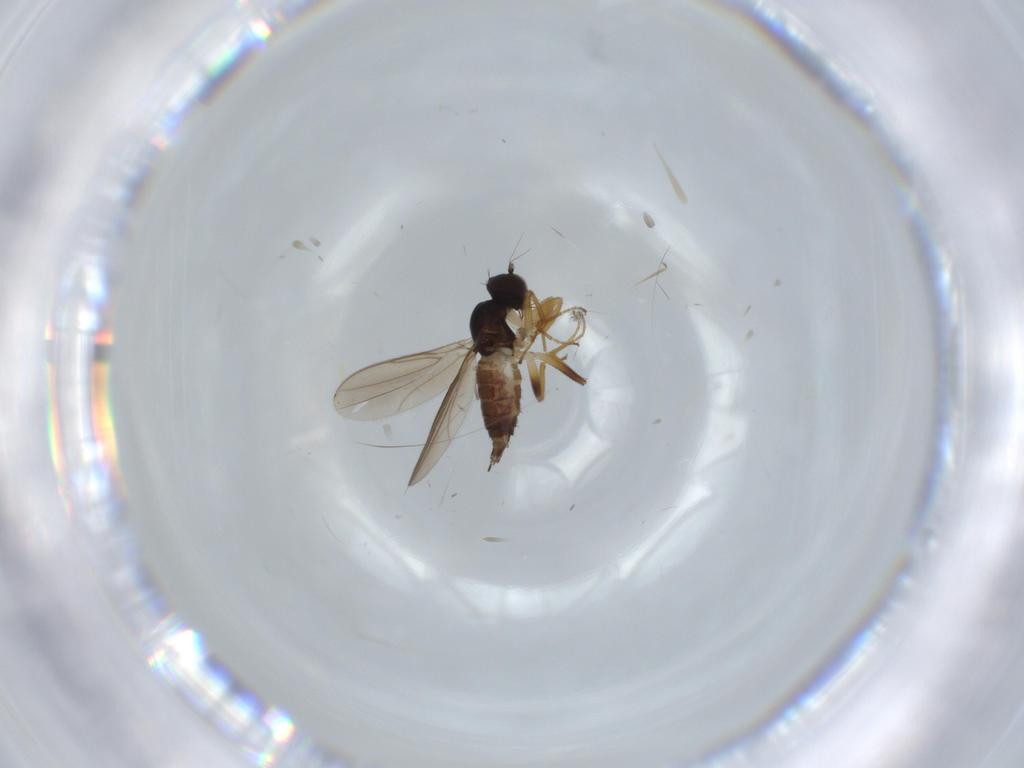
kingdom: Animalia
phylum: Arthropoda
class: Insecta
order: Diptera
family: Hybotidae
